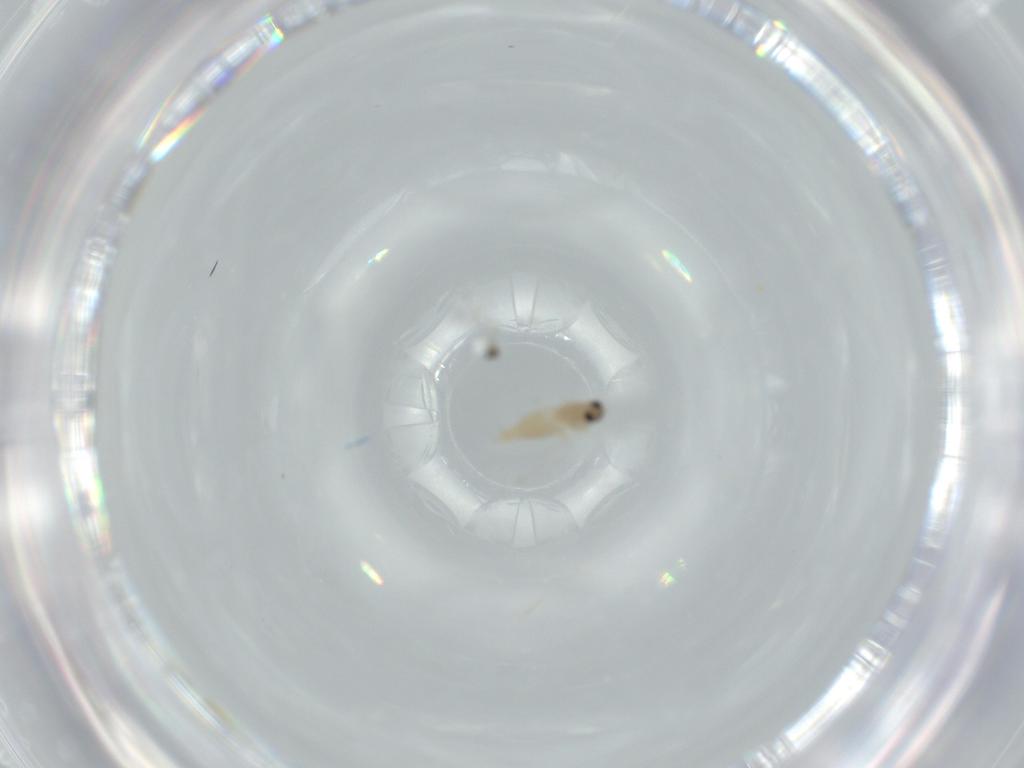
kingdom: Animalia
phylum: Arthropoda
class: Insecta
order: Diptera
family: Cecidomyiidae
